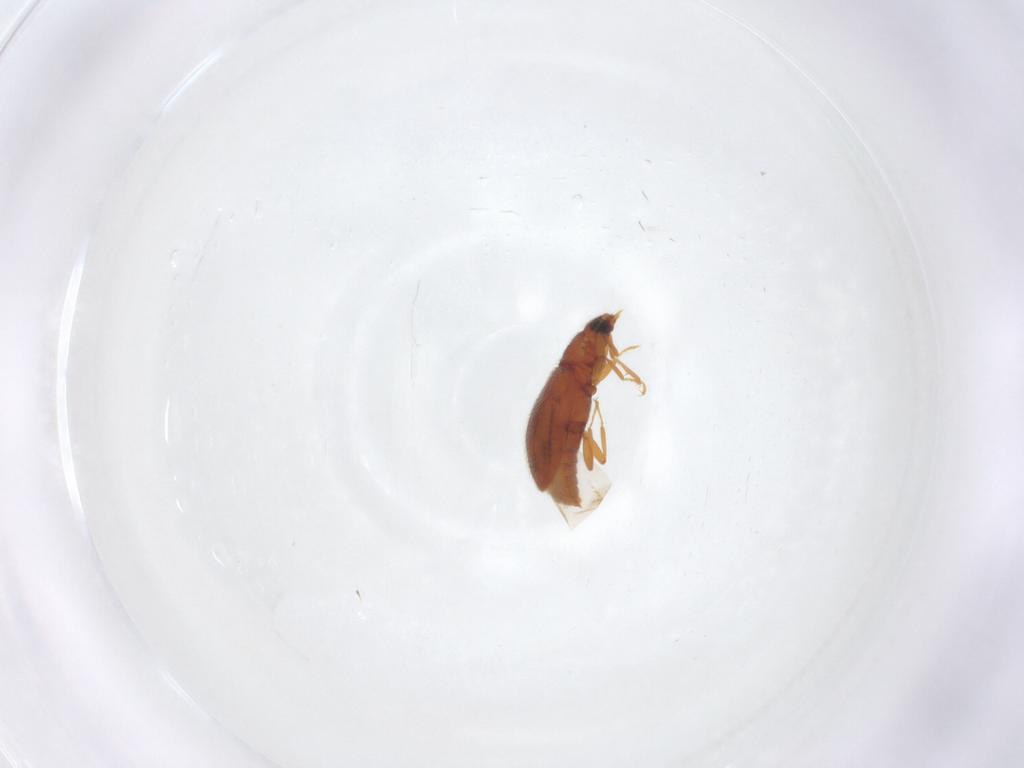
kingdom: Animalia
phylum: Arthropoda
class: Insecta
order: Coleoptera
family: Latridiidae
